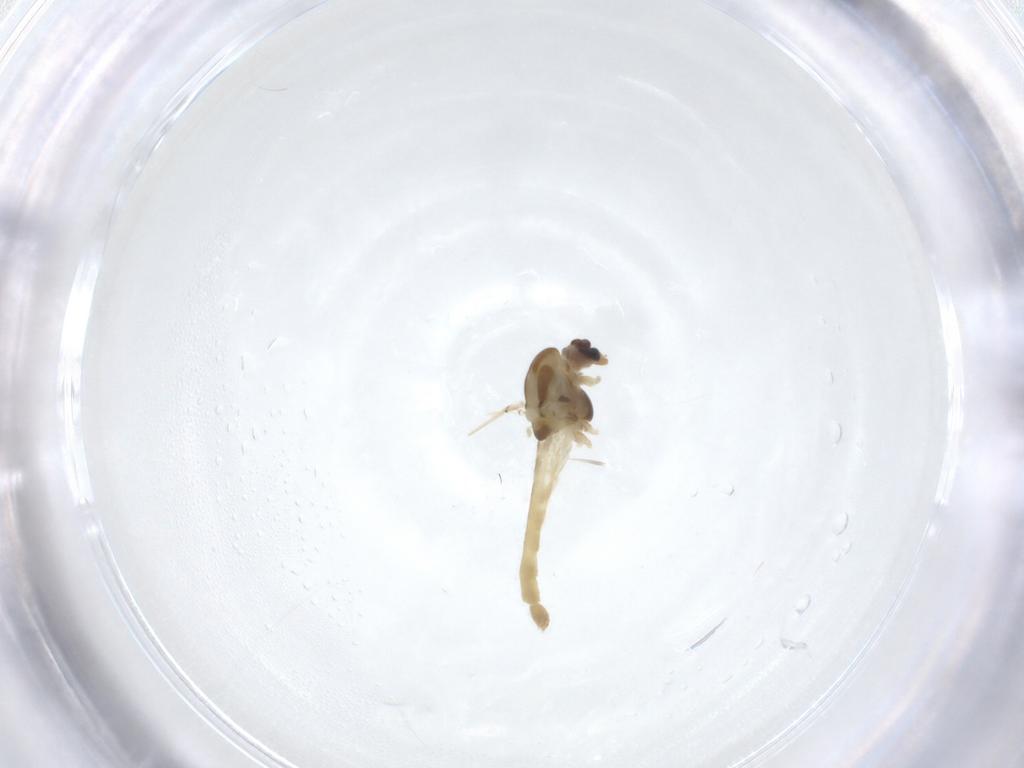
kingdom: Animalia
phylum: Arthropoda
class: Insecta
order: Diptera
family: Chironomidae
